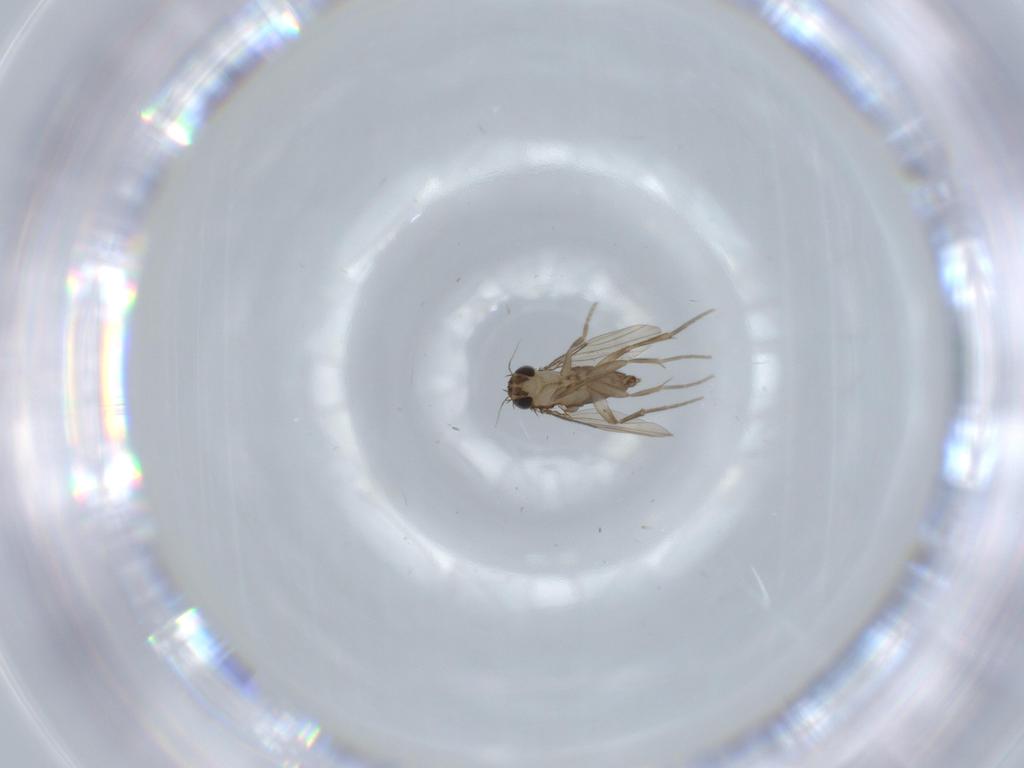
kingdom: Animalia
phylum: Arthropoda
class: Insecta
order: Diptera
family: Phoridae
